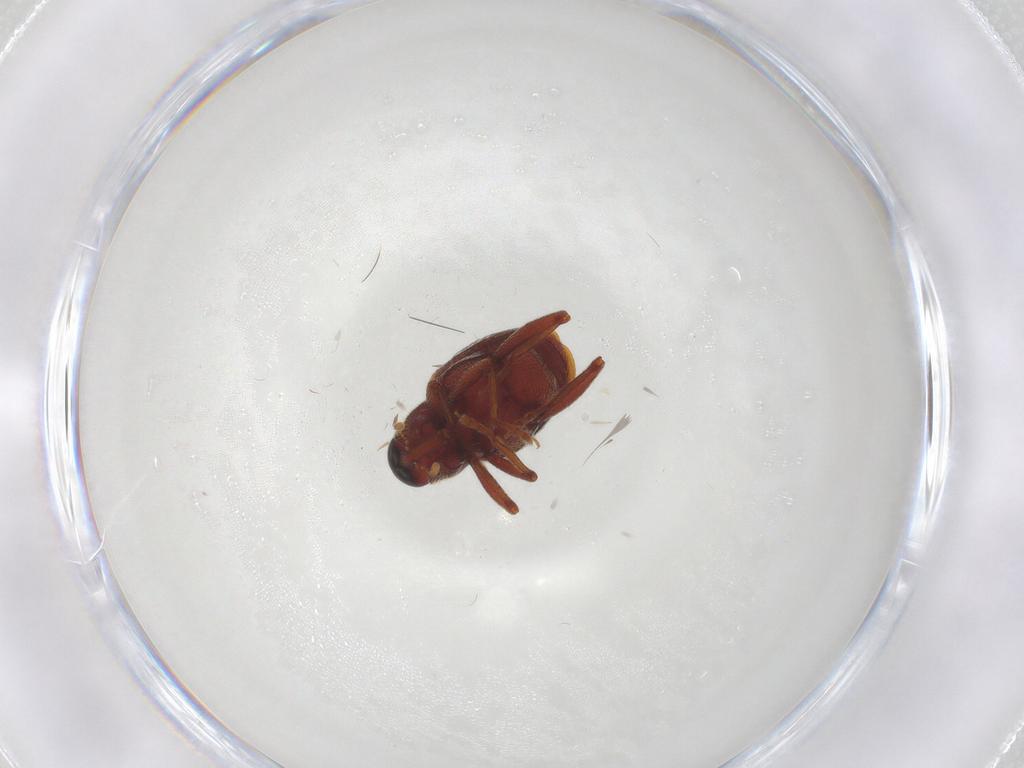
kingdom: Animalia
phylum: Arthropoda
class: Insecta
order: Coleoptera
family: Curculionidae
